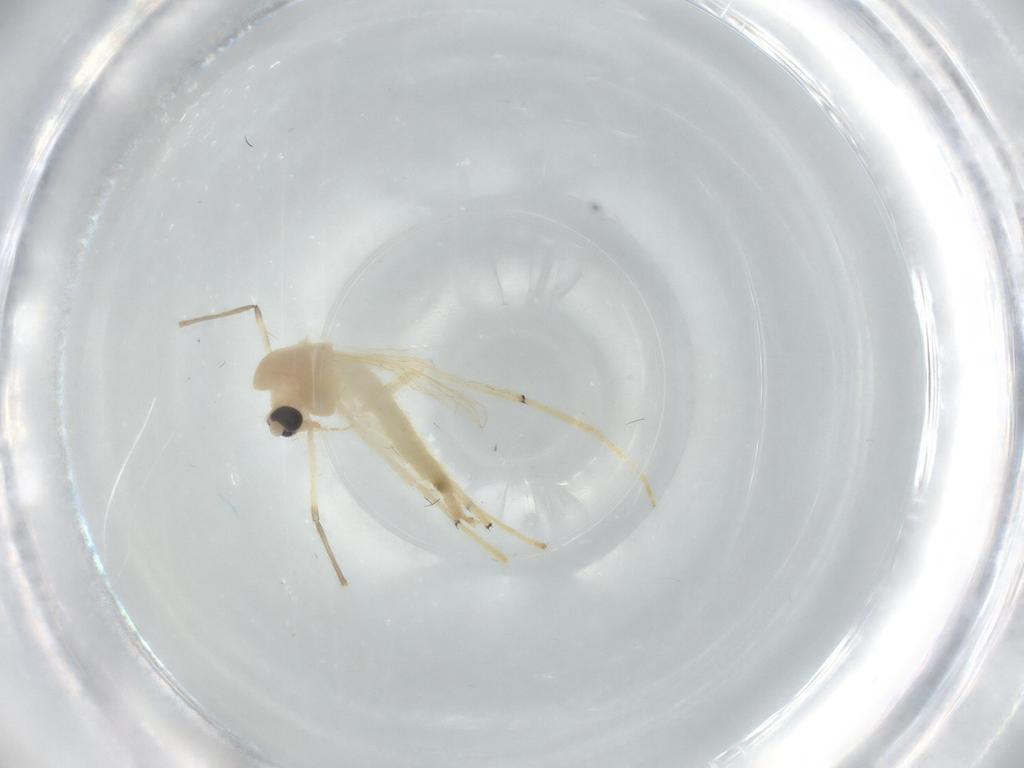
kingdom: Animalia
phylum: Arthropoda
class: Insecta
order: Diptera
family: Chironomidae
